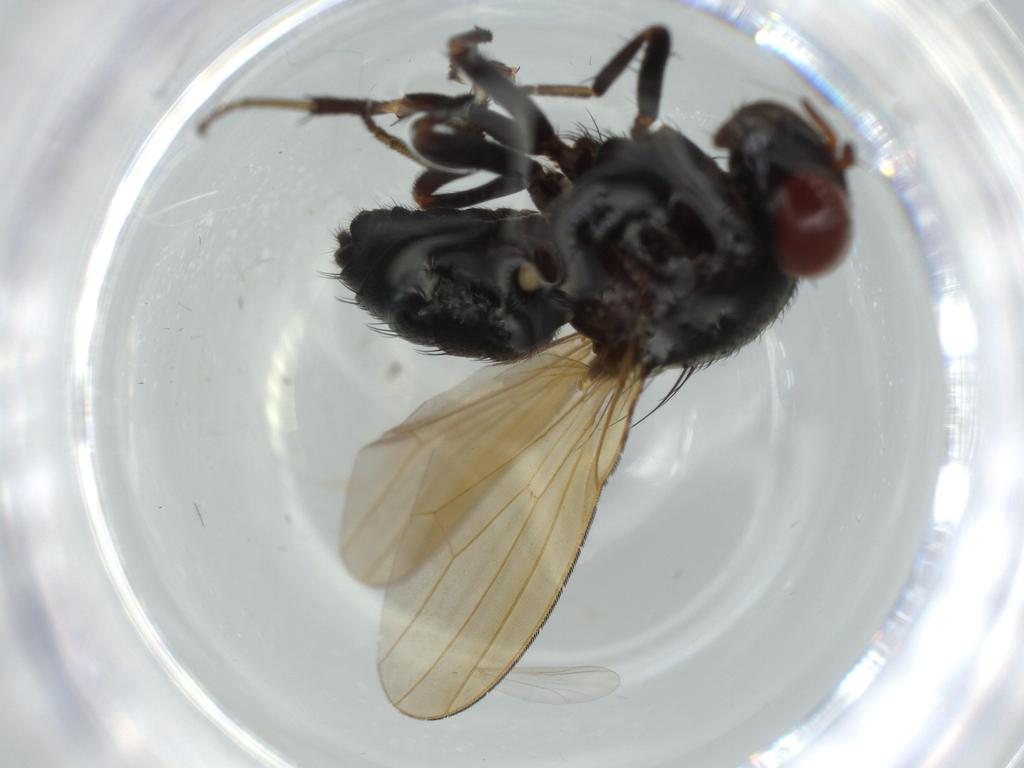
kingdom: Animalia
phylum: Arthropoda
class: Insecta
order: Diptera
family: Lauxaniidae
